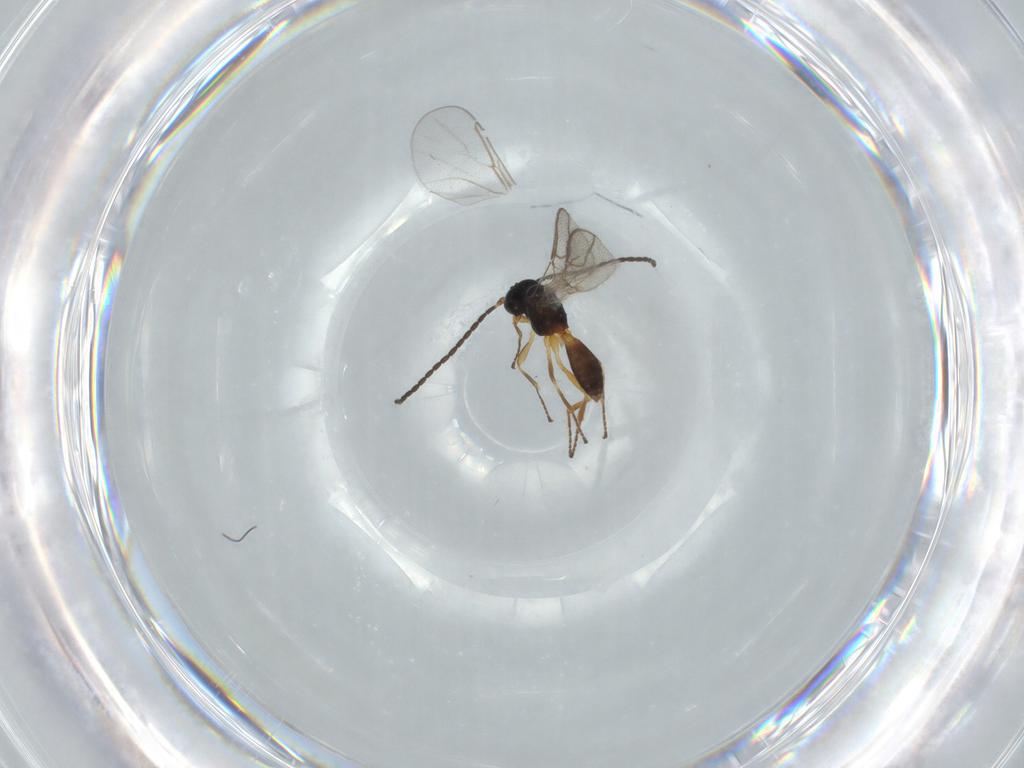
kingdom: Animalia
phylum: Arthropoda
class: Insecta
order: Hymenoptera
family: Braconidae
